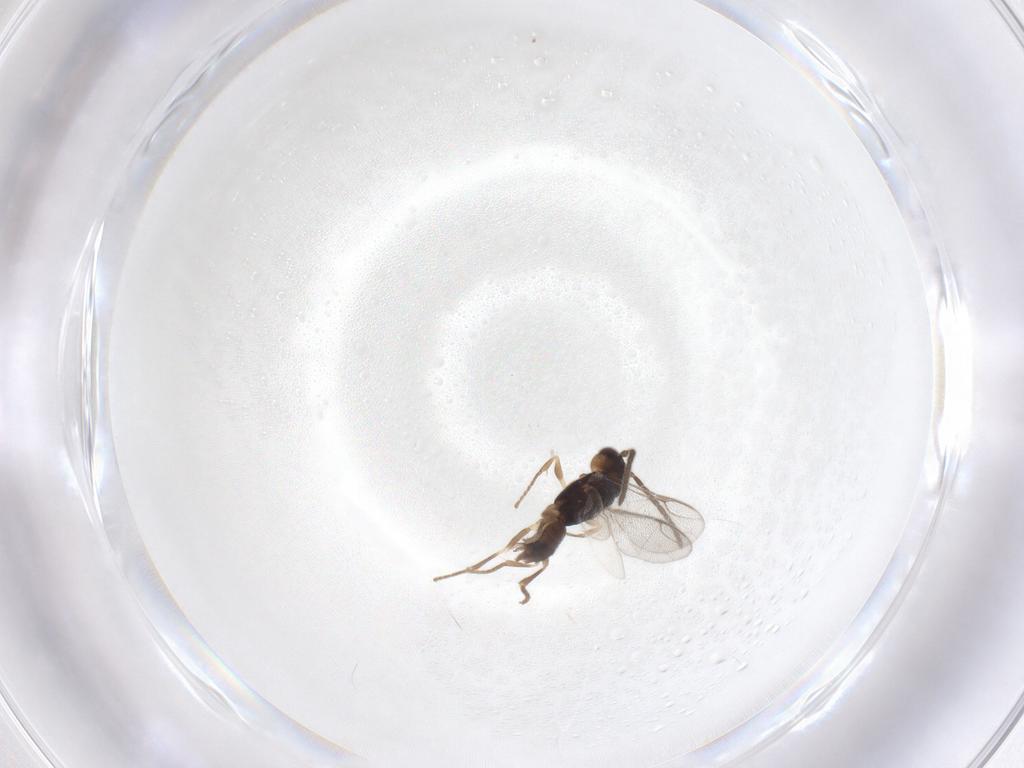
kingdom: Animalia
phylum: Arthropoda
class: Insecta
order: Hymenoptera
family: Dryinidae
